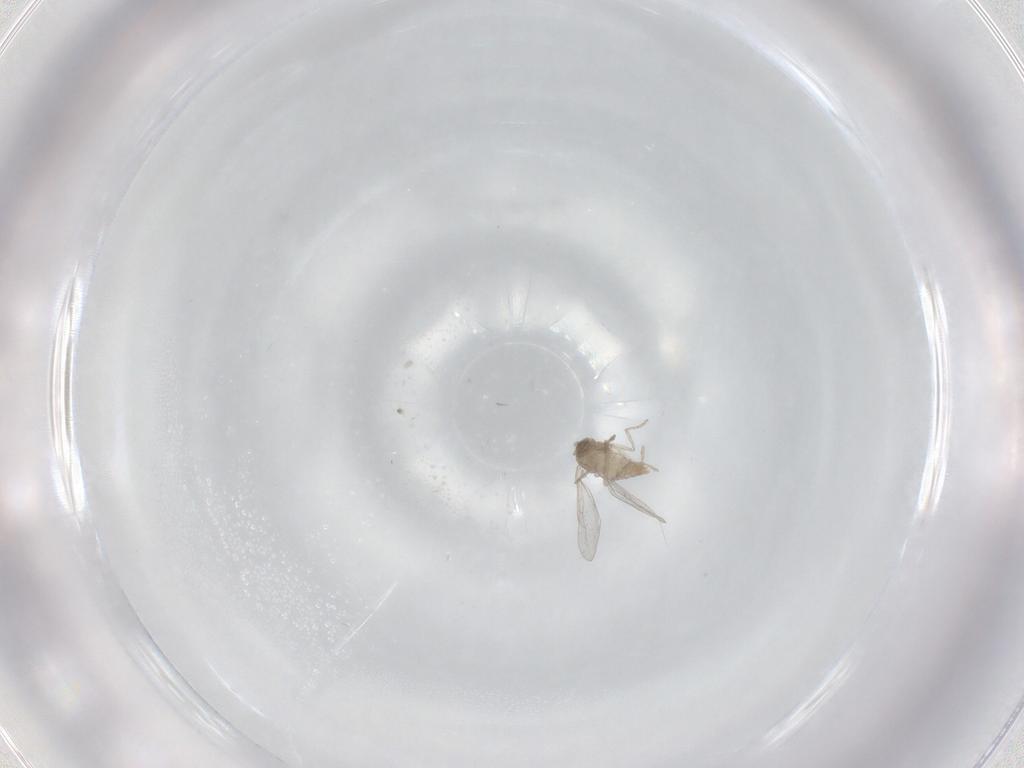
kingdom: Animalia
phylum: Arthropoda
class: Insecta
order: Diptera
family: Cecidomyiidae
